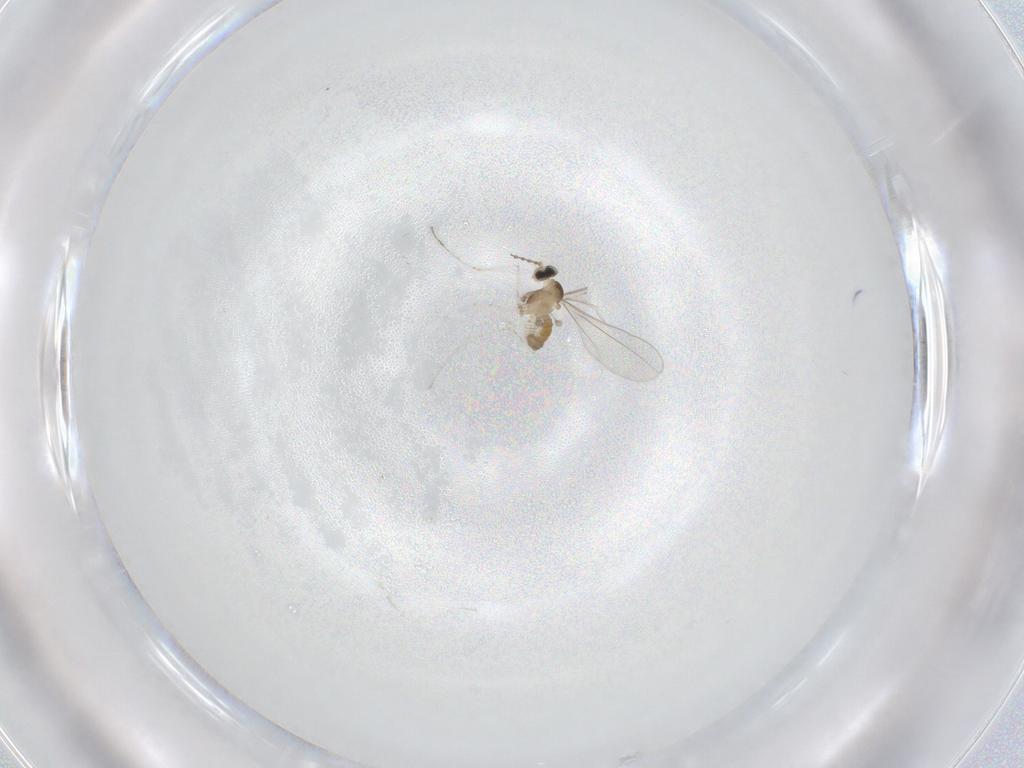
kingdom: Animalia
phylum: Arthropoda
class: Insecta
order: Diptera
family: Cecidomyiidae
